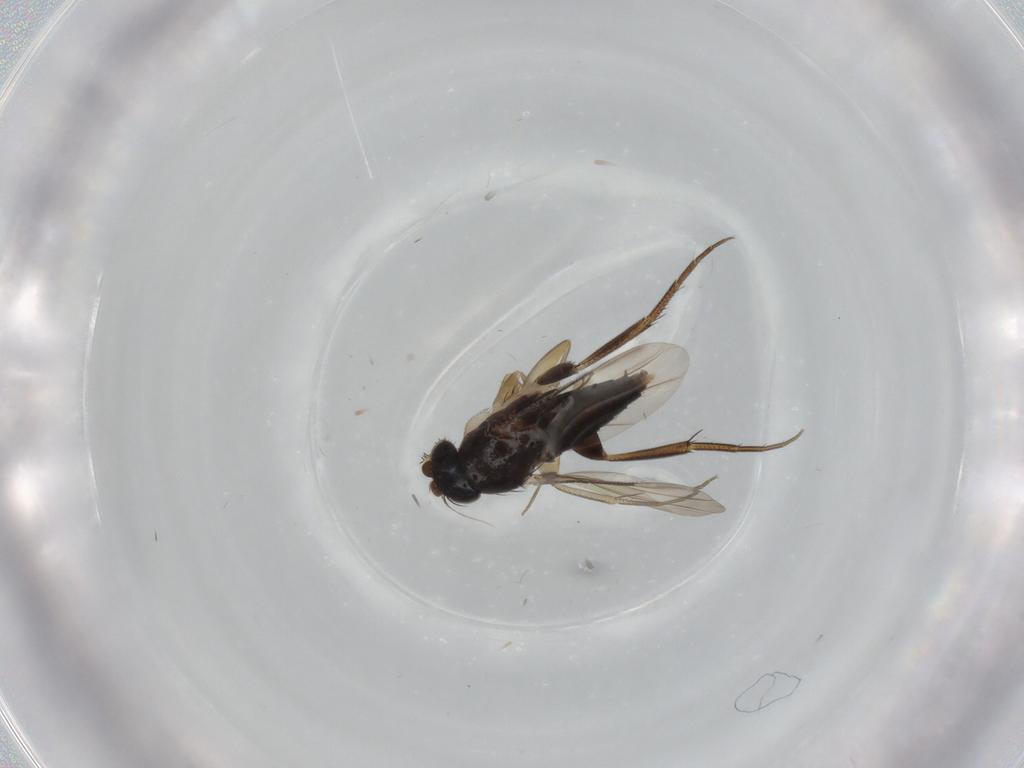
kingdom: Animalia
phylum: Arthropoda
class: Insecta
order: Diptera
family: Phoridae
